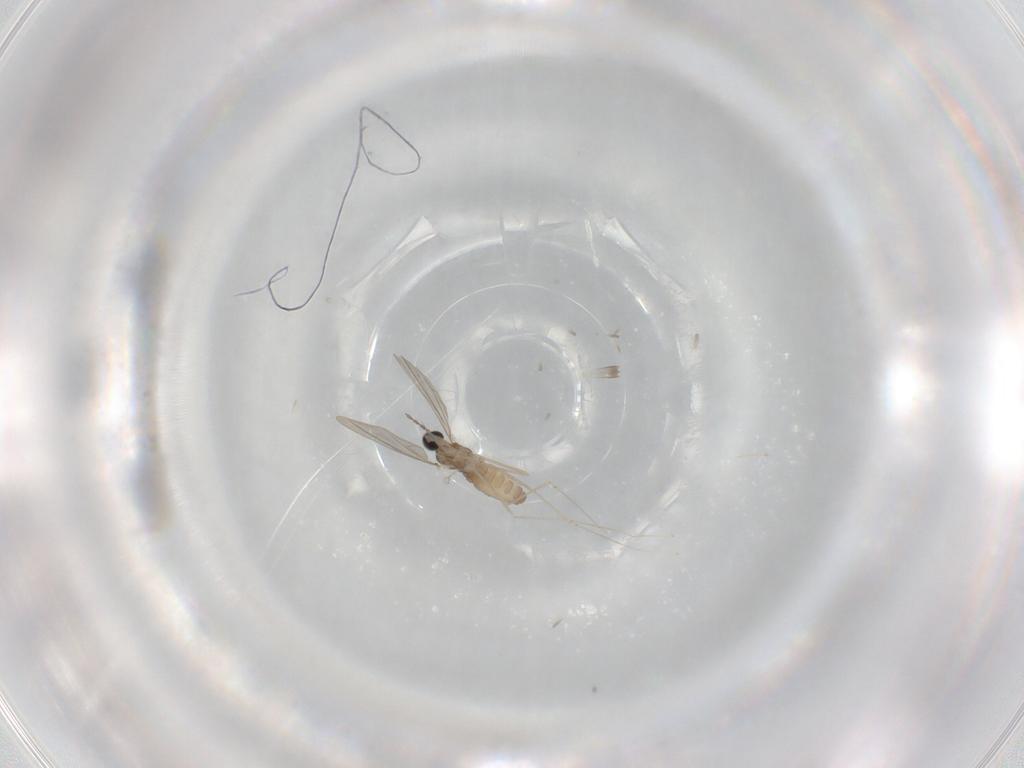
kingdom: Animalia
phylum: Arthropoda
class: Insecta
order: Diptera
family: Cecidomyiidae
